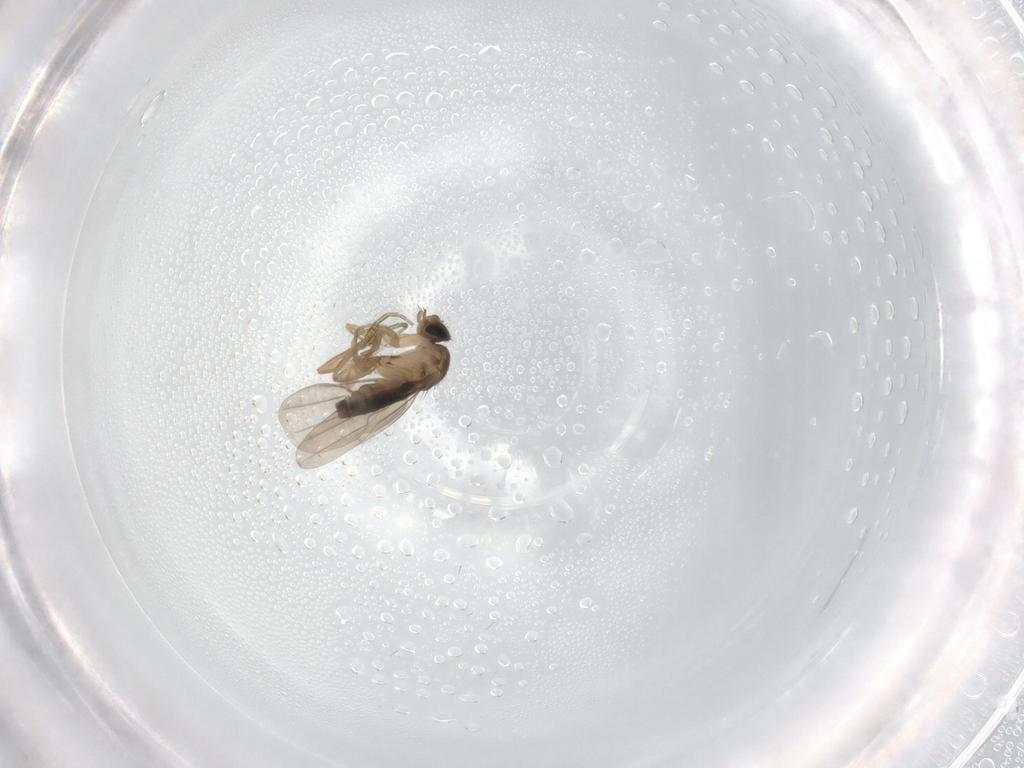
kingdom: Animalia
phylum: Arthropoda
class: Insecta
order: Diptera
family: Phoridae
